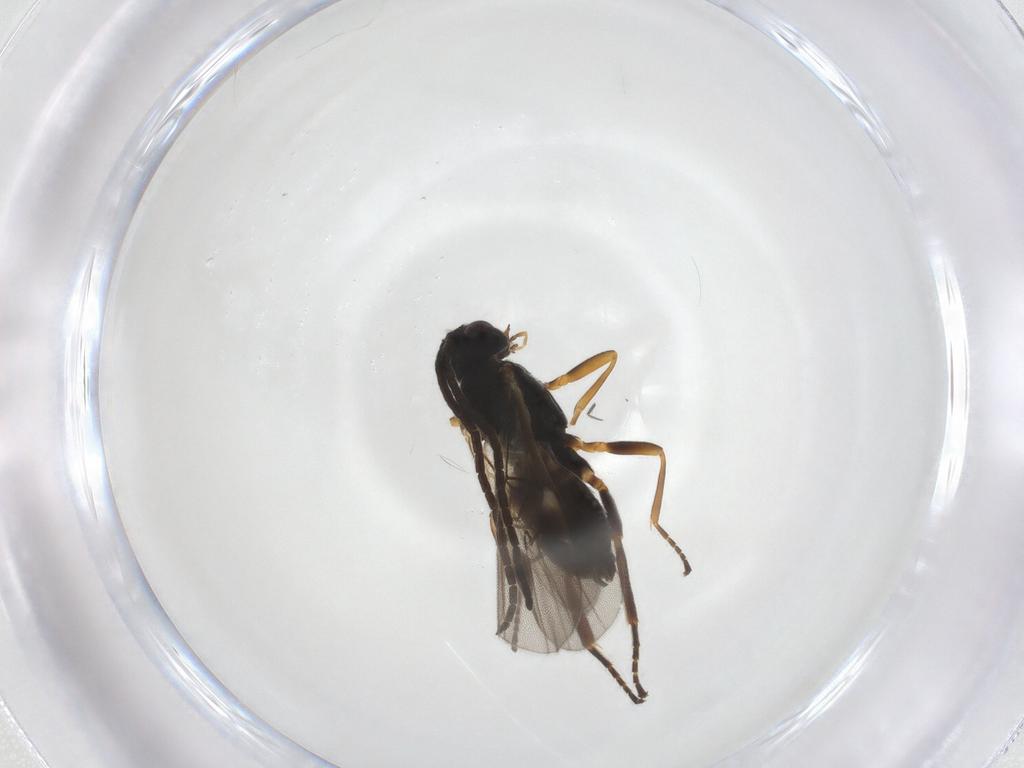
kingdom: Animalia
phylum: Arthropoda
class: Insecta
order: Hymenoptera
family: Braconidae
